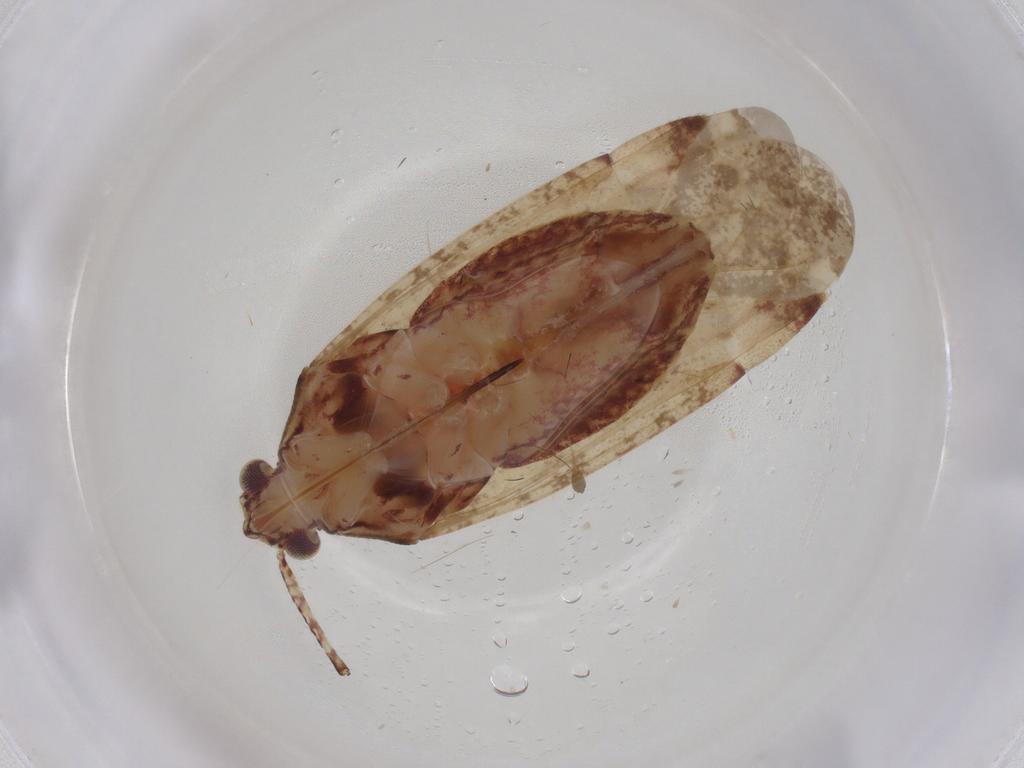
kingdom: Animalia
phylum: Arthropoda
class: Insecta
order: Hemiptera
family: Miridae
